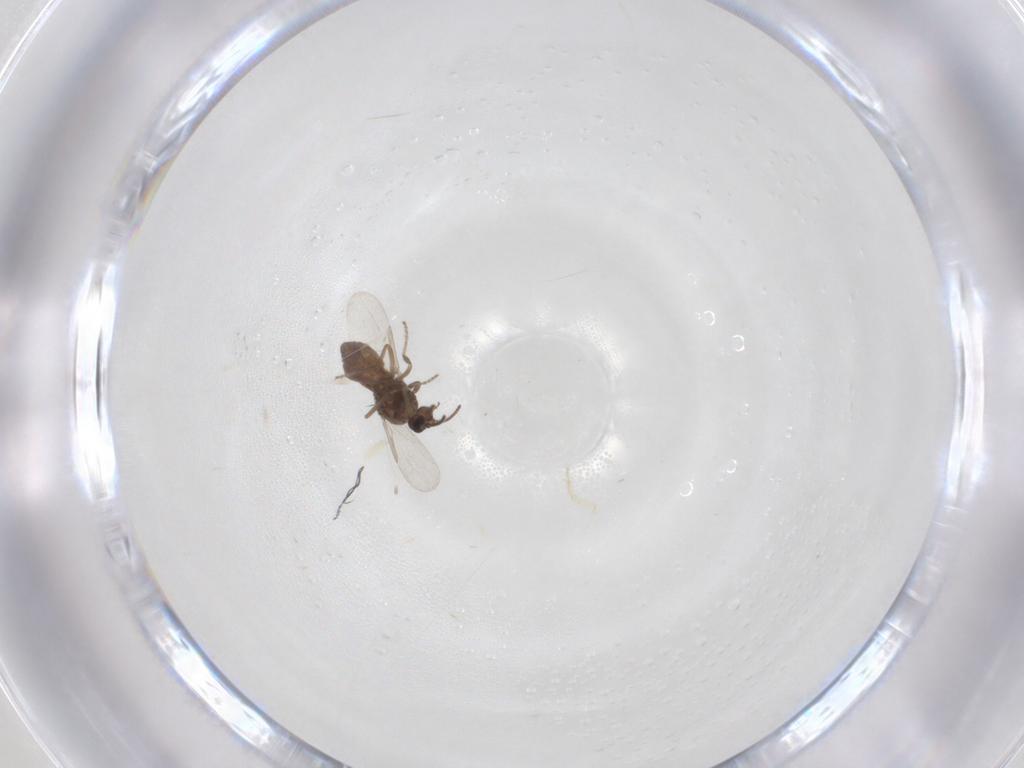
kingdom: Animalia
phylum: Arthropoda
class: Insecta
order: Diptera
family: Ceratopogonidae
